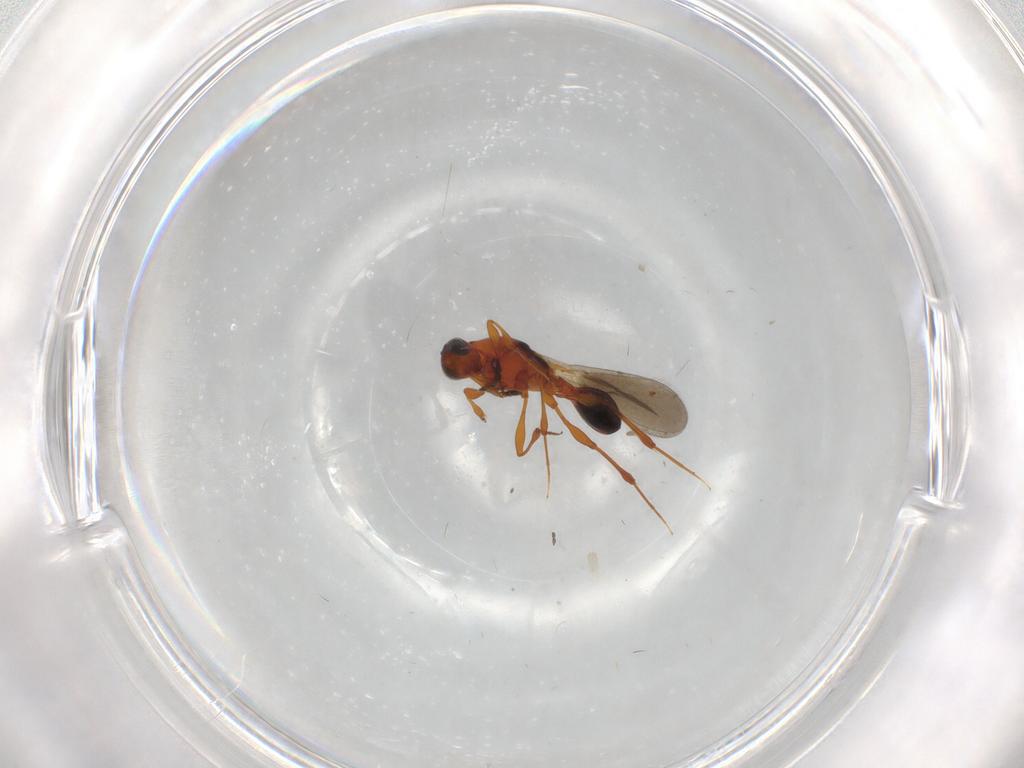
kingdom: Animalia
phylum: Arthropoda
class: Insecta
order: Hymenoptera
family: Platygastridae
